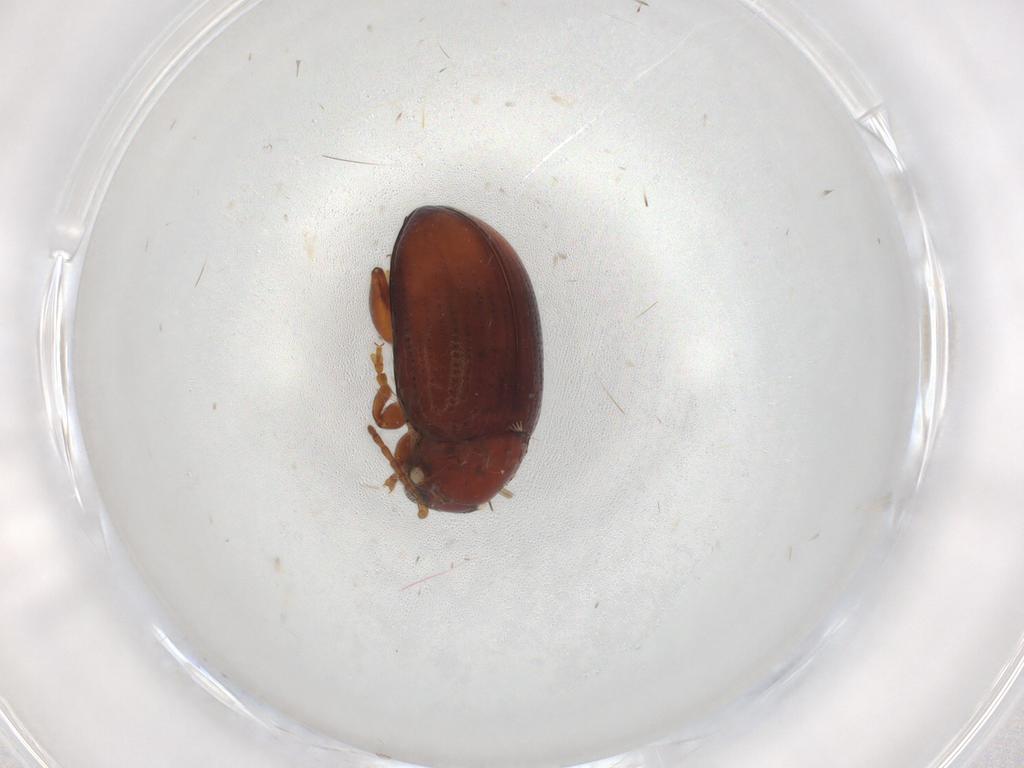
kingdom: Animalia
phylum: Arthropoda
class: Insecta
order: Coleoptera
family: Chrysomelidae
